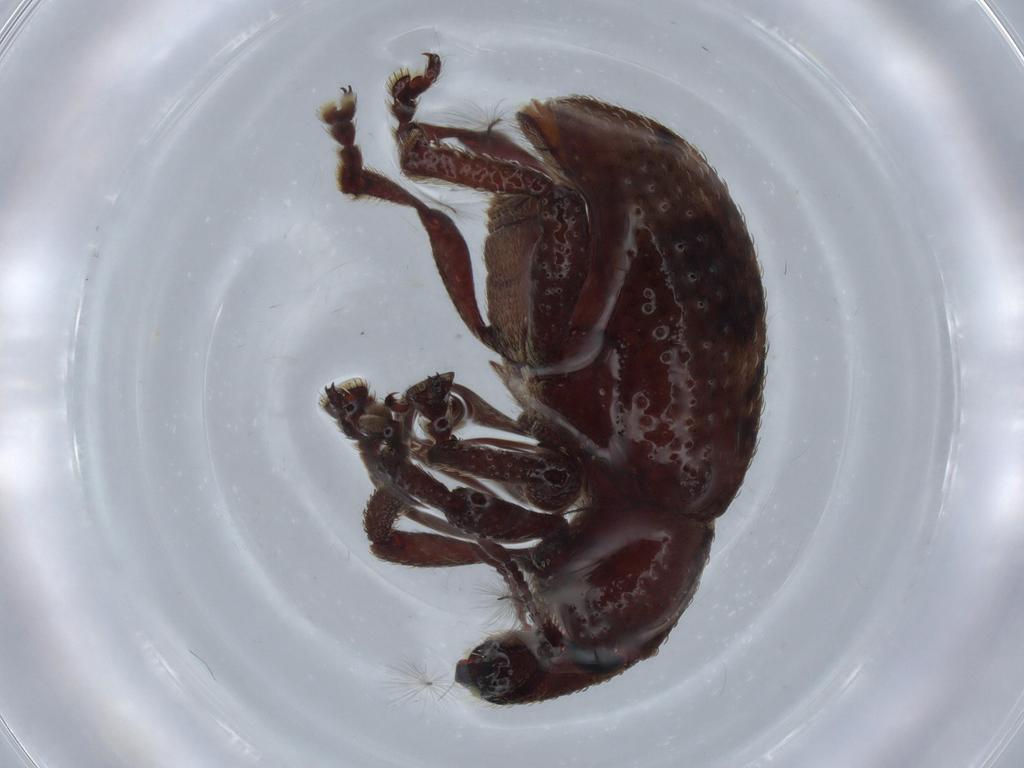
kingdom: Animalia
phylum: Arthropoda
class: Insecta
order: Coleoptera
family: Curculionidae
